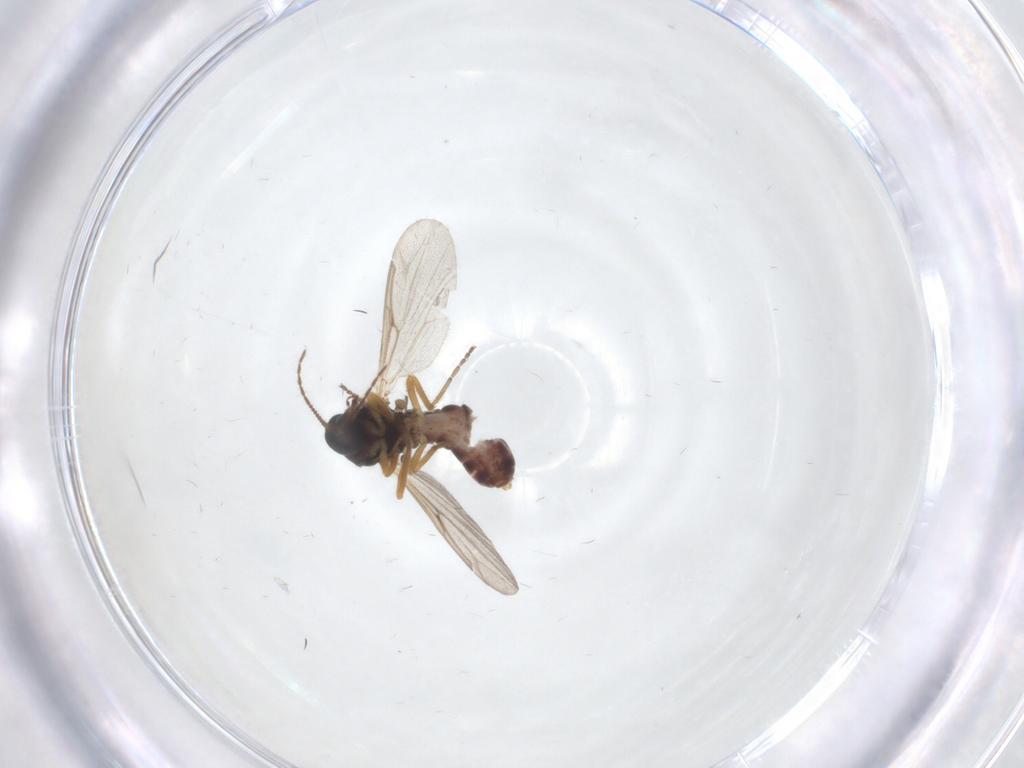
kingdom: Animalia
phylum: Arthropoda
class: Insecta
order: Diptera
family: Ceratopogonidae
